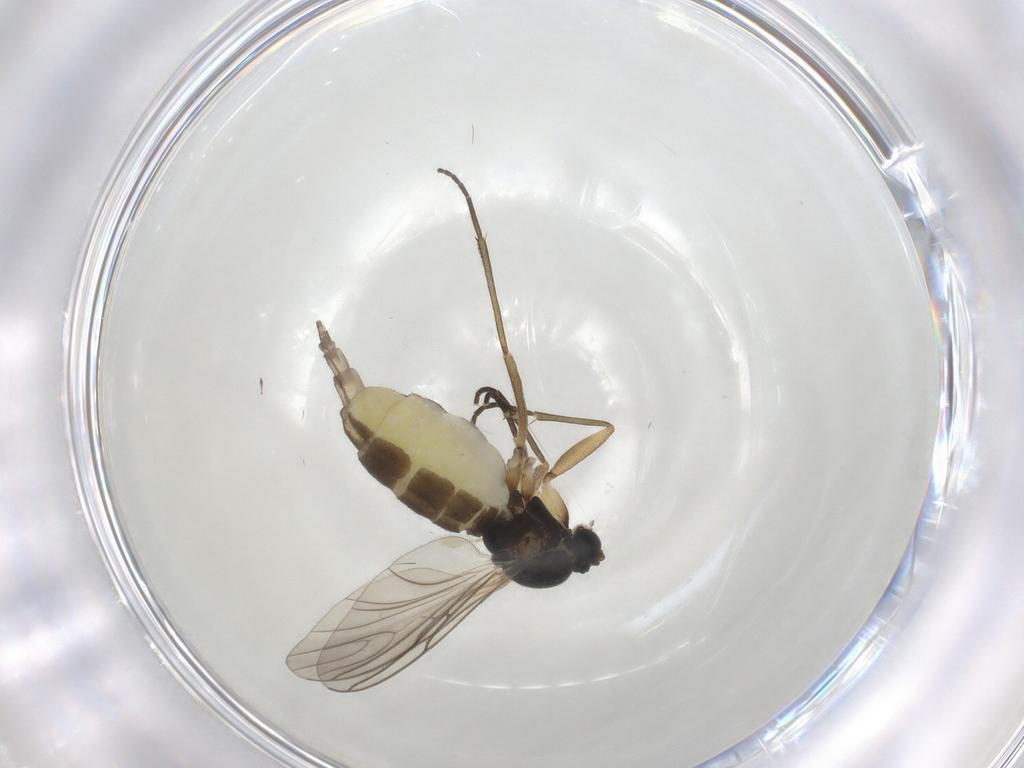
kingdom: Animalia
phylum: Arthropoda
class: Insecta
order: Diptera
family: Sciaridae
